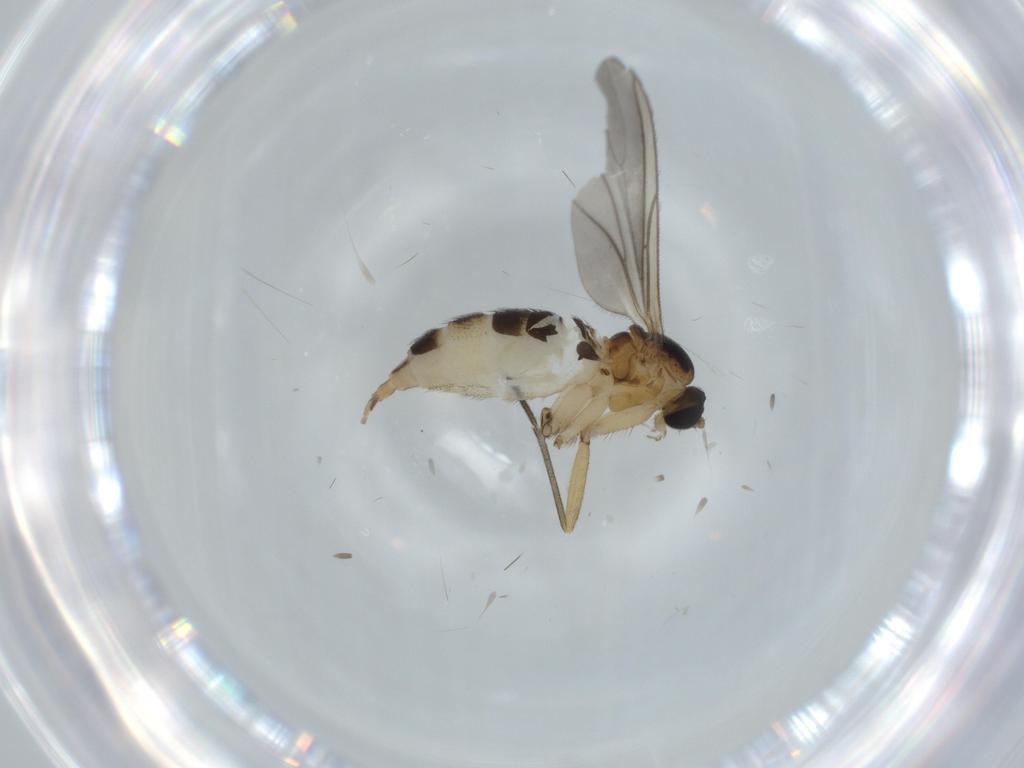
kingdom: Animalia
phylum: Arthropoda
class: Insecta
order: Diptera
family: Sciaridae
